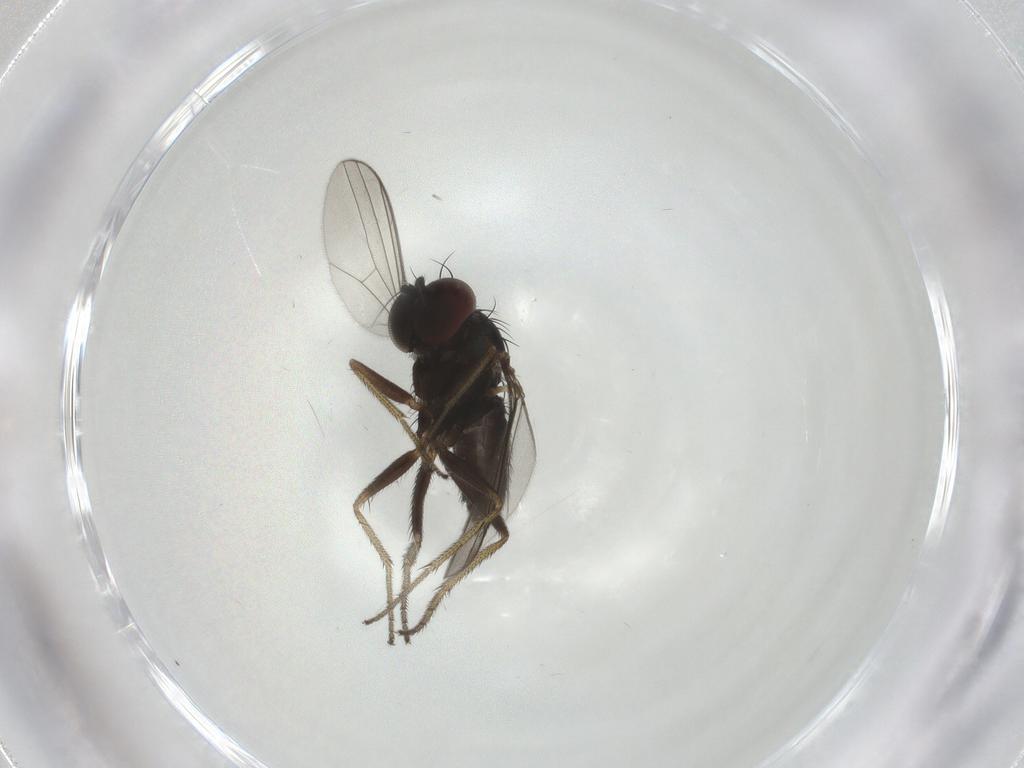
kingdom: Animalia
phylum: Arthropoda
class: Insecta
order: Diptera
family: Dolichopodidae
